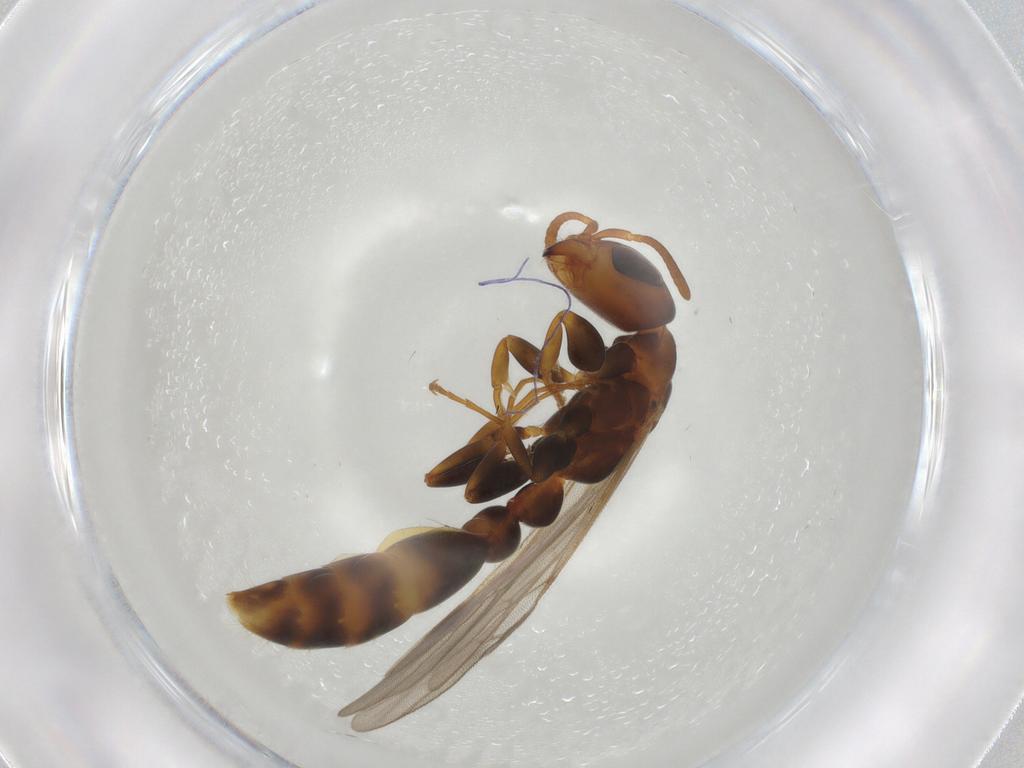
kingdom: Animalia
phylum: Arthropoda
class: Insecta
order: Hymenoptera
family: Formicidae
